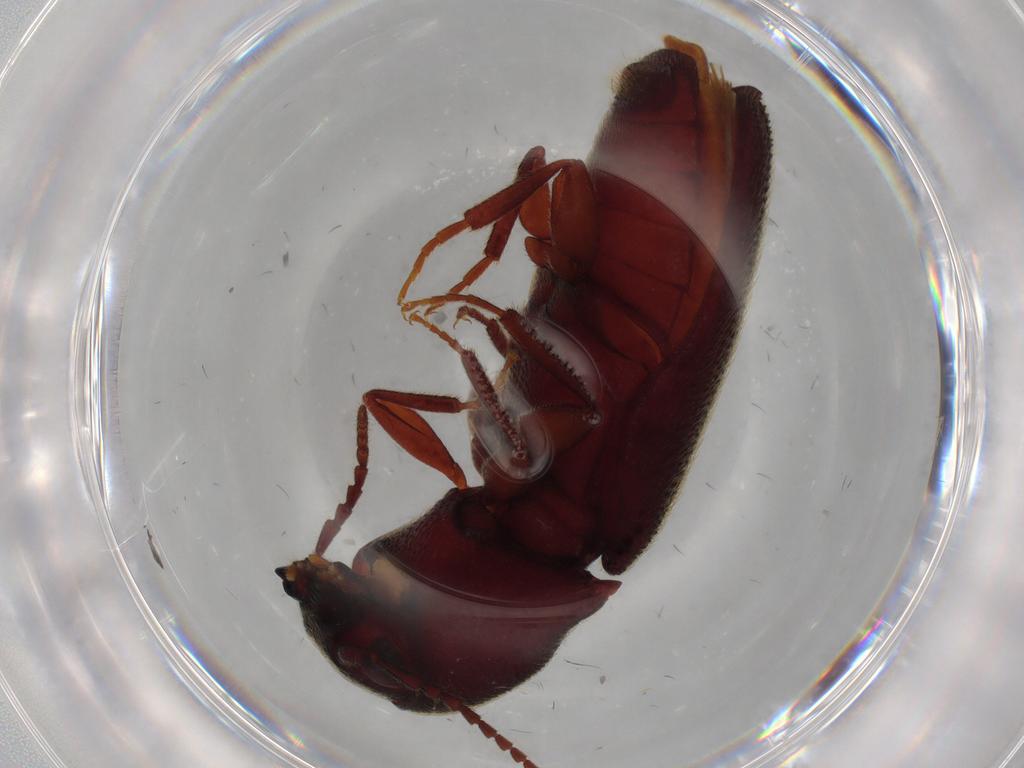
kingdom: Animalia
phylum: Arthropoda
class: Insecta
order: Coleoptera
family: Eucnemidae
